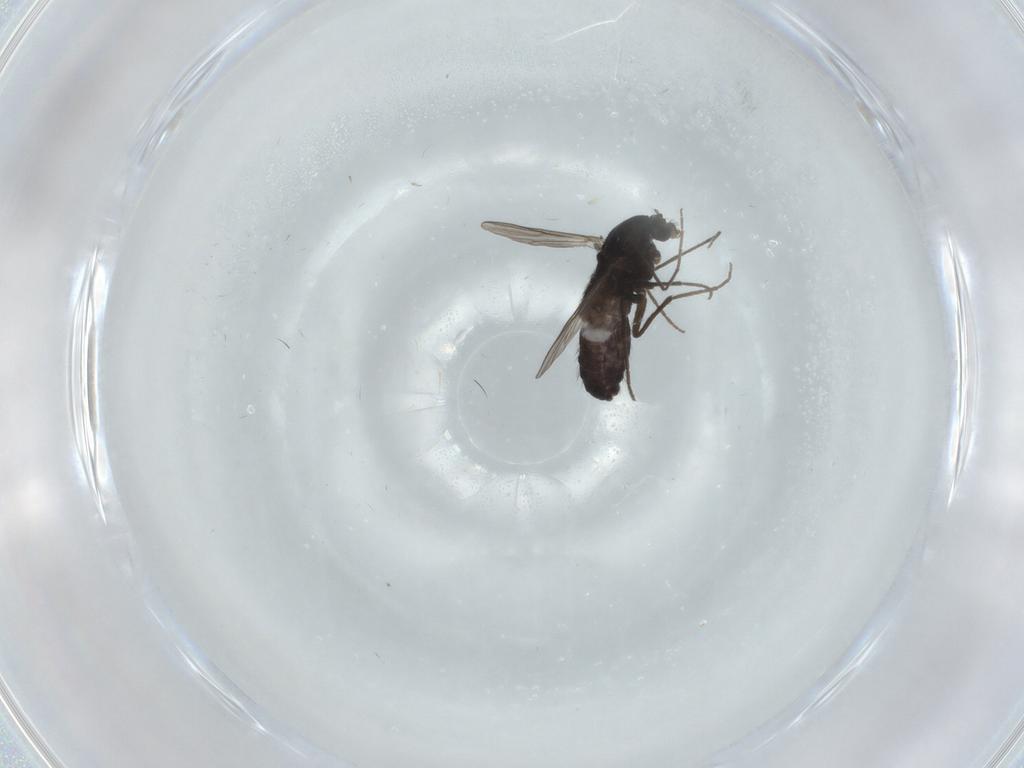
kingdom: Animalia
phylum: Arthropoda
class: Insecta
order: Diptera
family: Chironomidae
